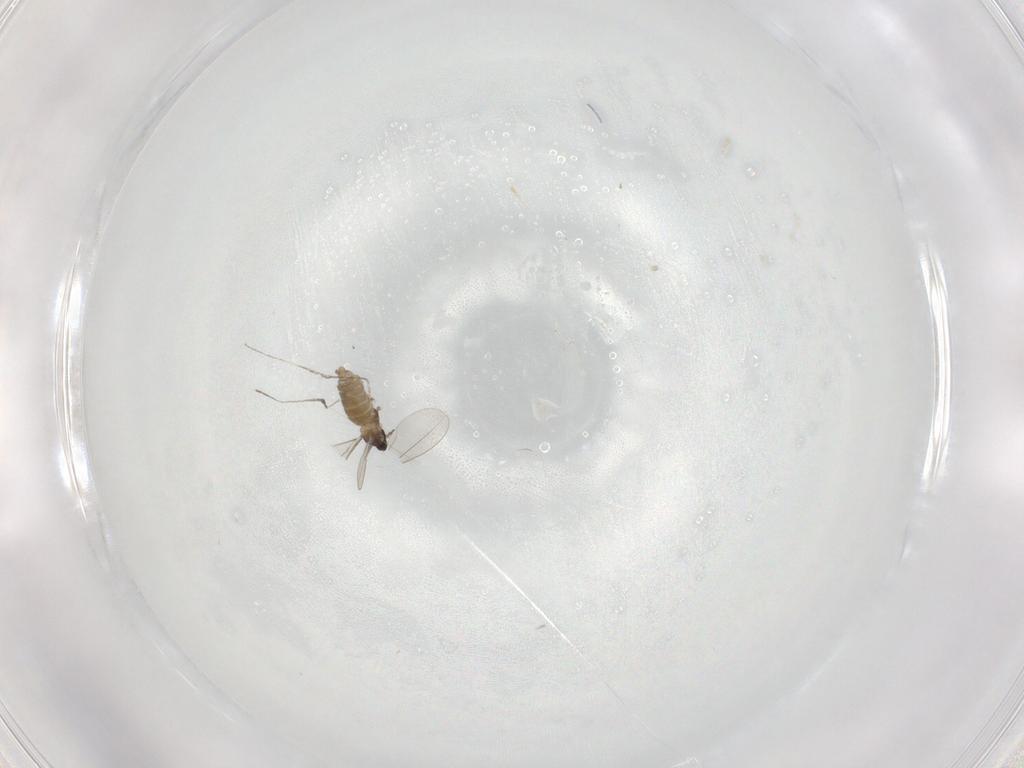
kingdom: Animalia
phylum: Arthropoda
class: Insecta
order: Diptera
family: Cecidomyiidae
